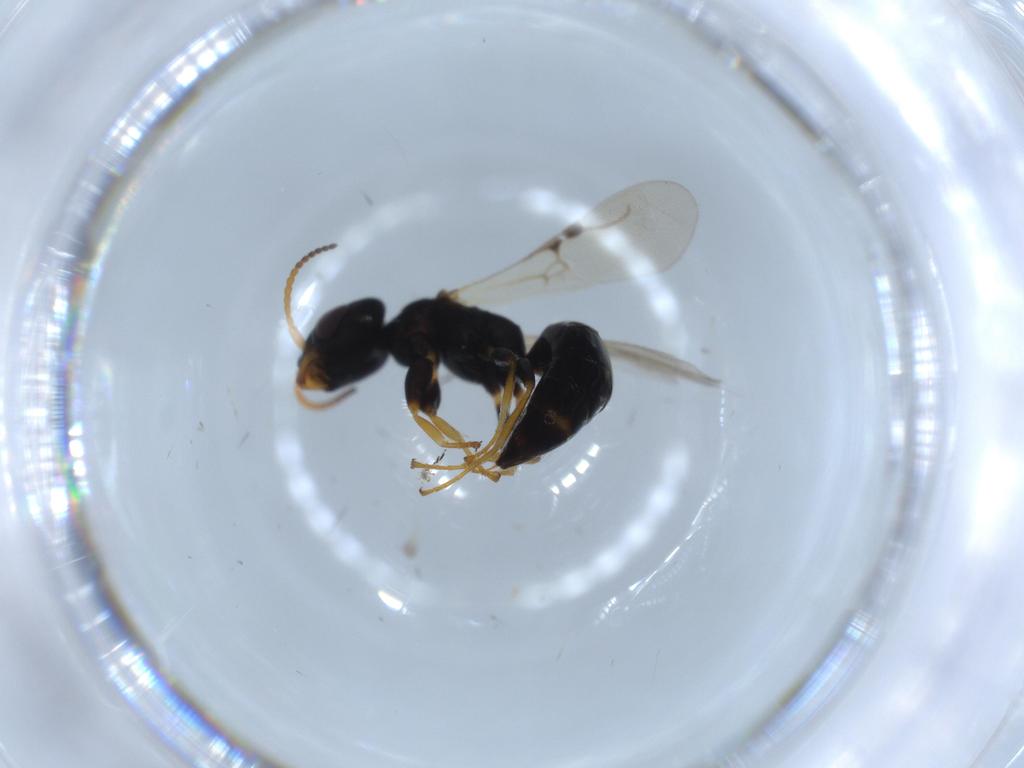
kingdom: Animalia
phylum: Arthropoda
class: Insecta
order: Hymenoptera
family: Bethylidae
